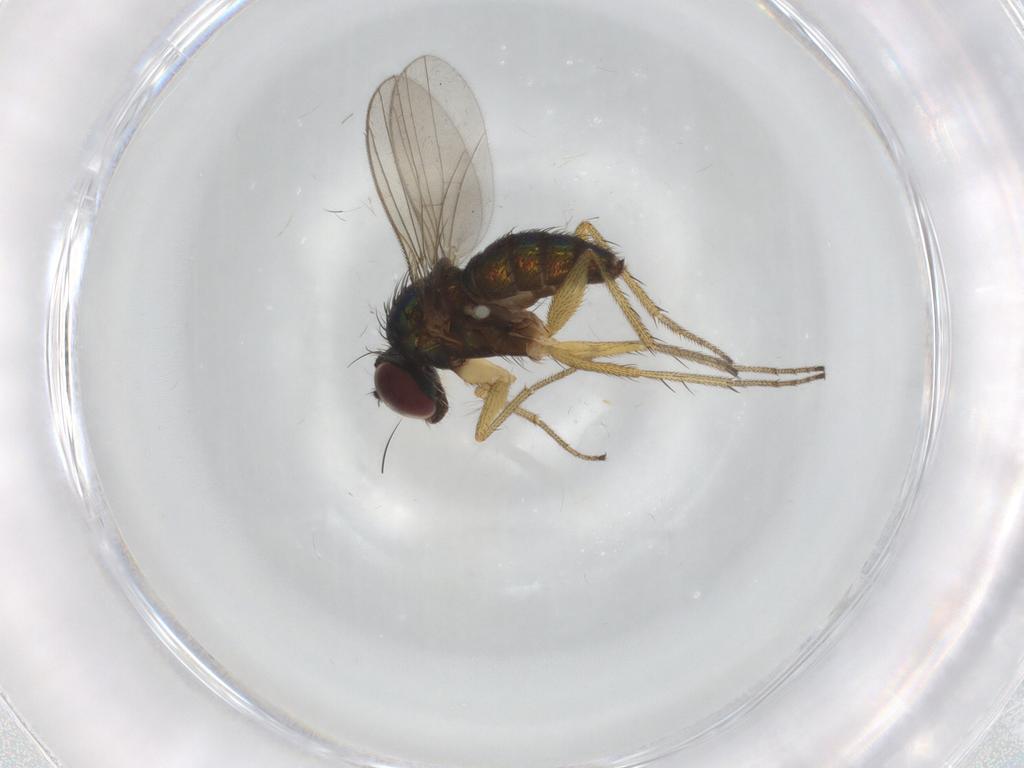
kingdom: Animalia
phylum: Arthropoda
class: Insecta
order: Diptera
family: Dolichopodidae
